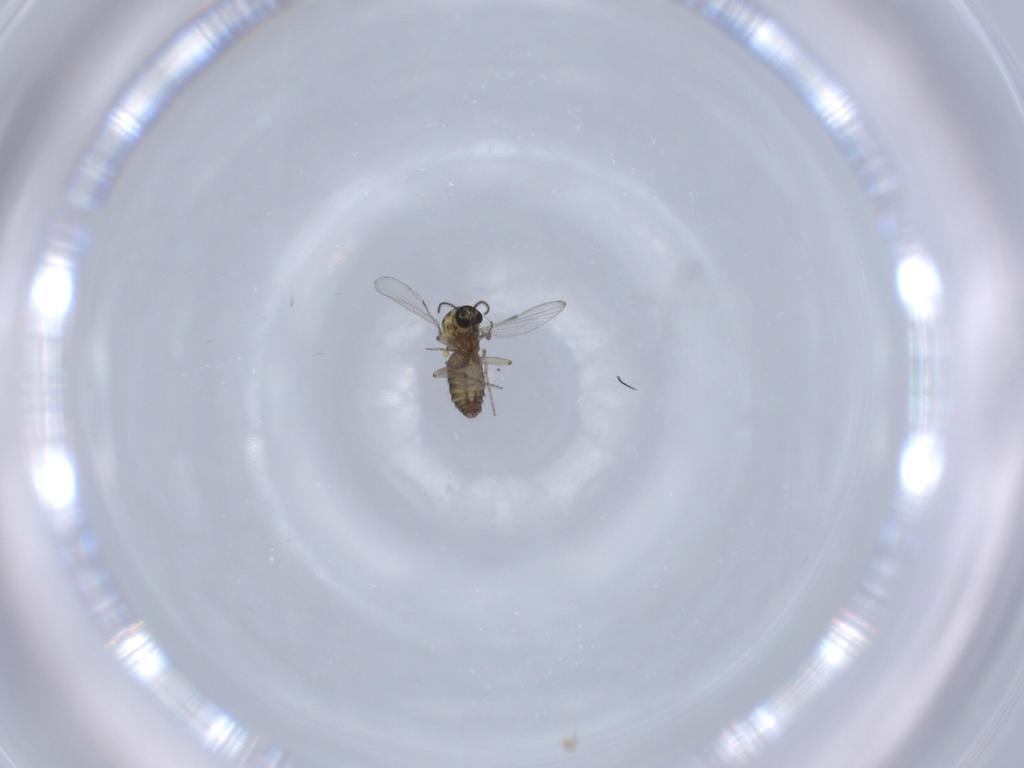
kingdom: Animalia
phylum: Arthropoda
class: Insecta
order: Diptera
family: Ceratopogonidae
